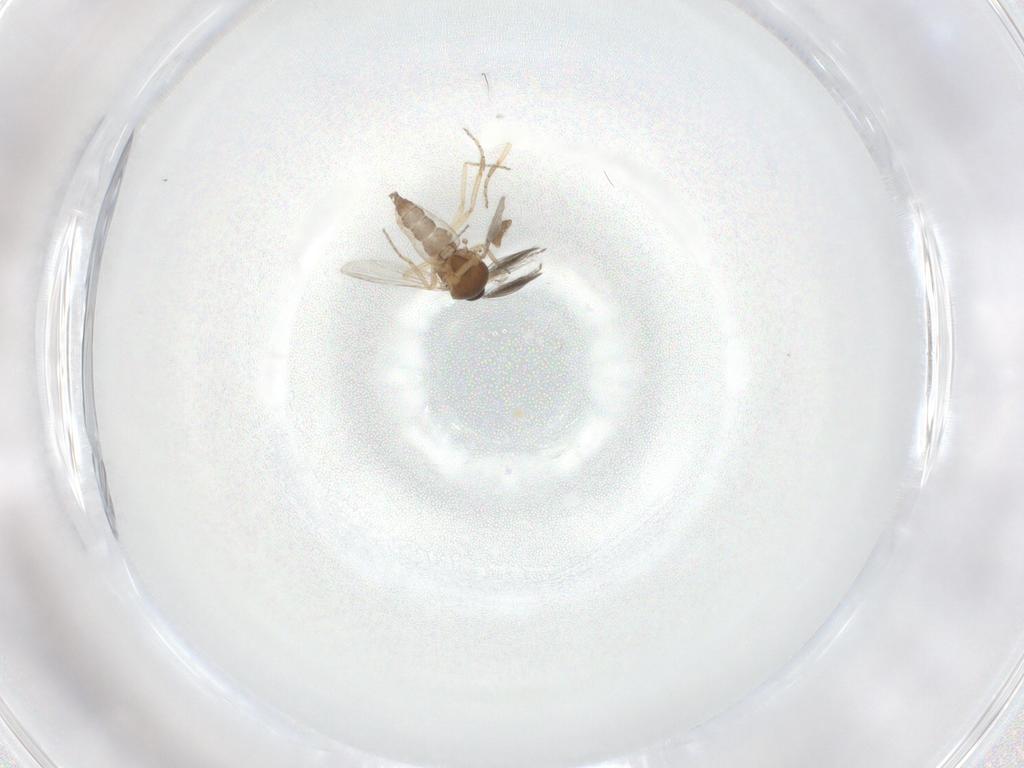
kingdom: Animalia
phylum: Arthropoda
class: Insecta
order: Diptera
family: Ceratopogonidae
